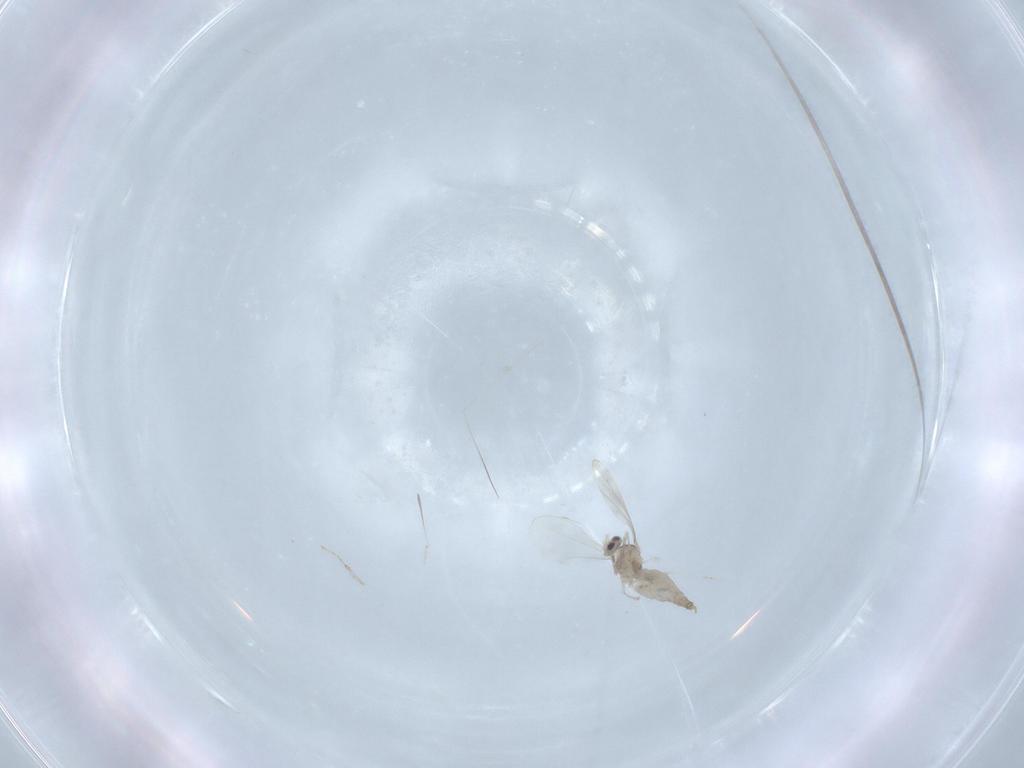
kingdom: Animalia
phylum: Arthropoda
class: Insecta
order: Diptera
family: Cecidomyiidae
